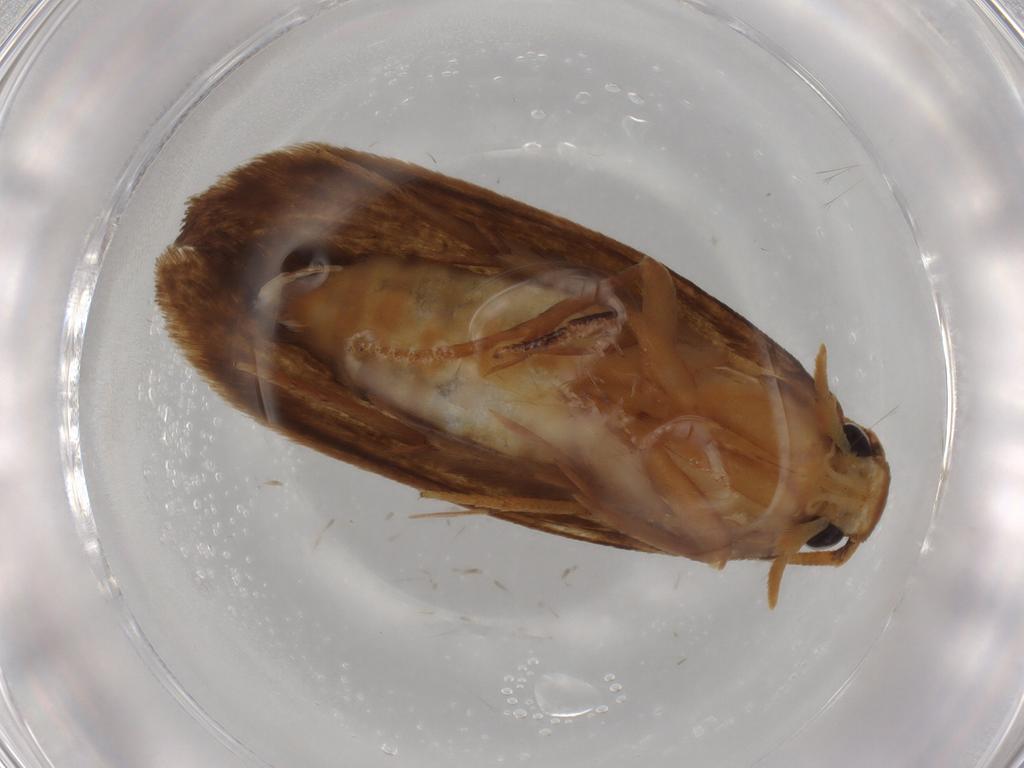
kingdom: Animalia
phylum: Arthropoda
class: Insecta
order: Lepidoptera
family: Tineidae
